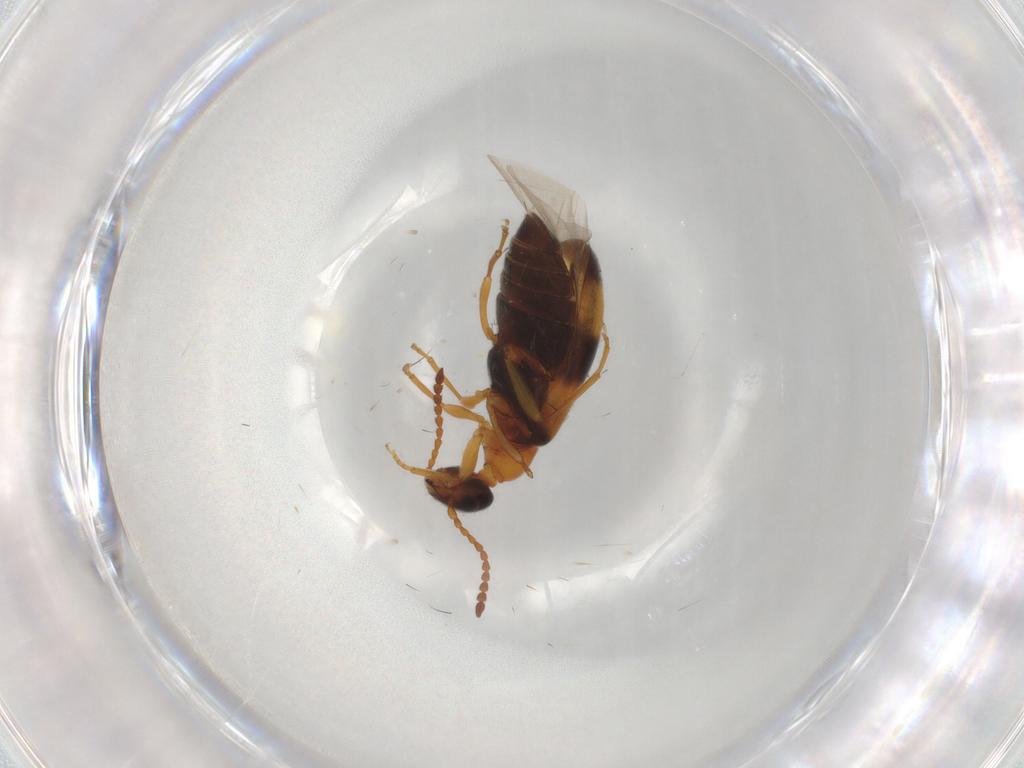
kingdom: Animalia
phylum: Arthropoda
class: Insecta
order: Coleoptera
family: Anthicidae
